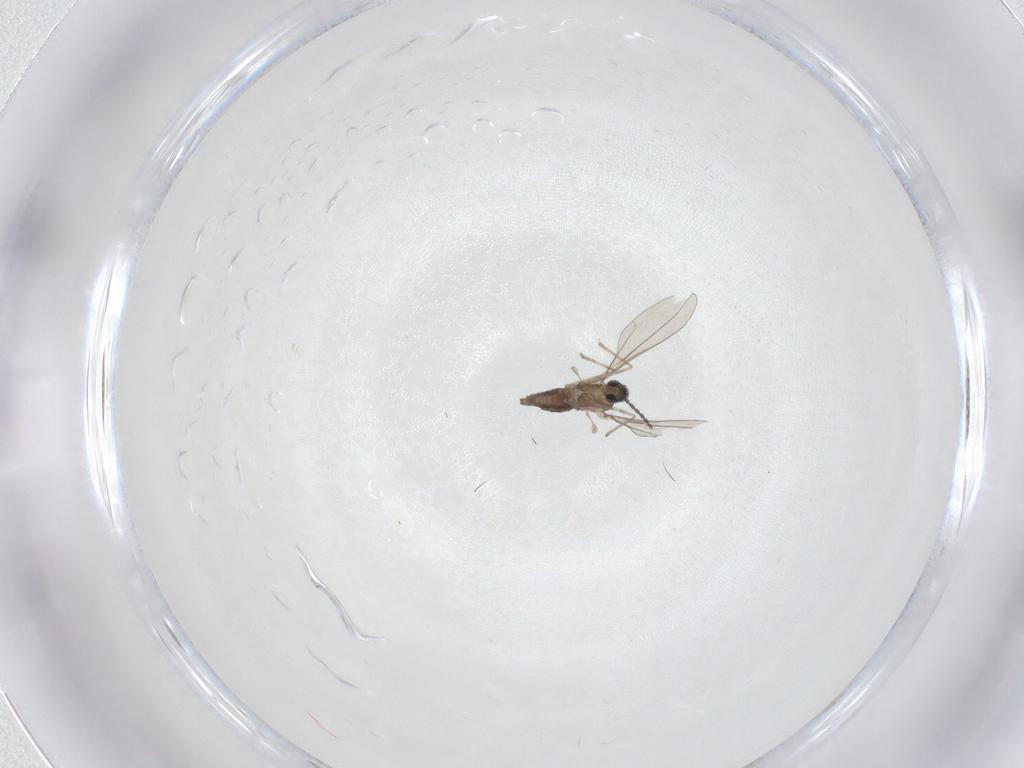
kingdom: Animalia
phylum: Arthropoda
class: Insecta
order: Diptera
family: Cecidomyiidae
